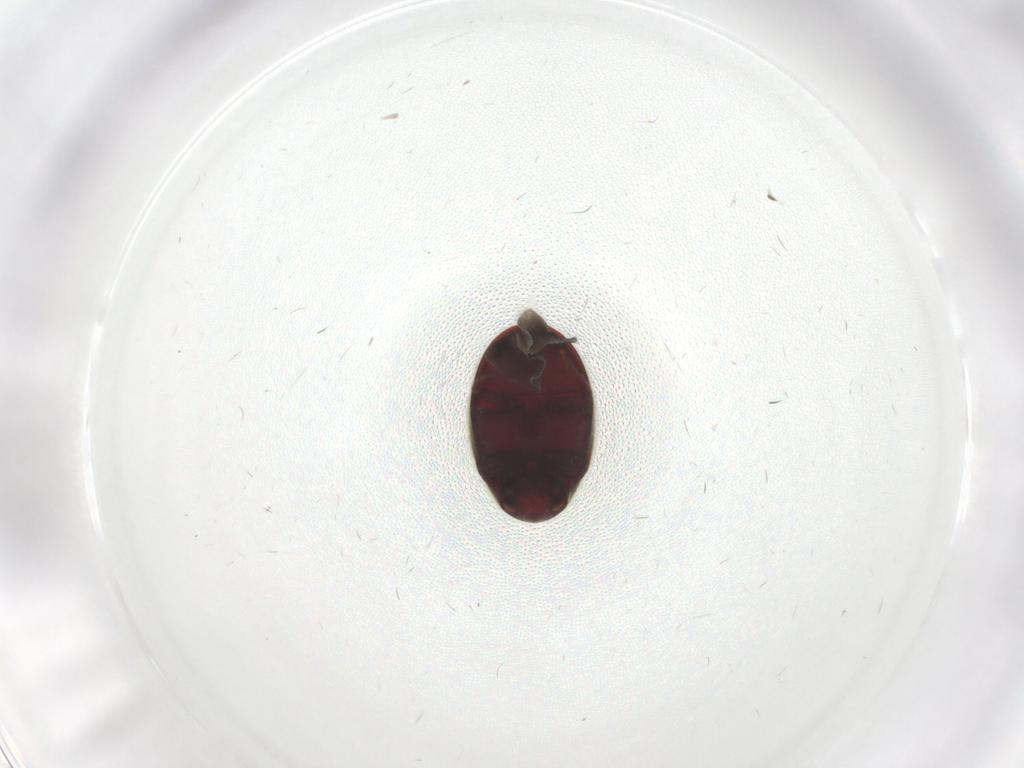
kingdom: Animalia
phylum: Arthropoda
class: Insecta
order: Coleoptera
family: Ptinidae
